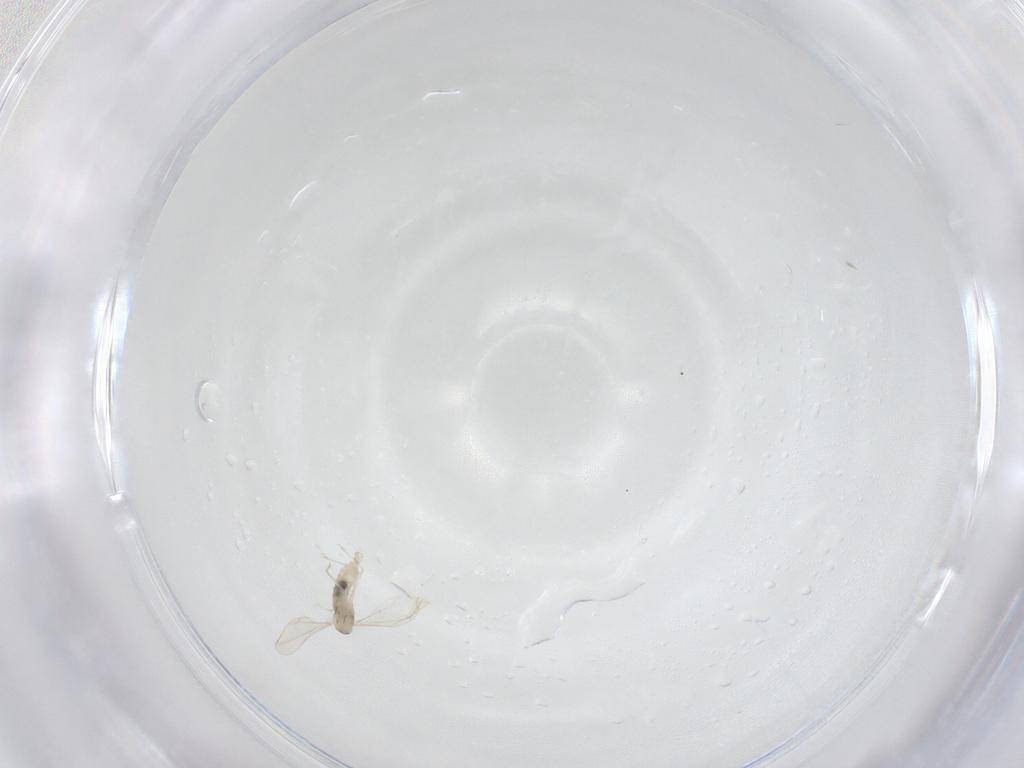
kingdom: Animalia
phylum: Arthropoda
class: Insecta
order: Diptera
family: Cecidomyiidae
